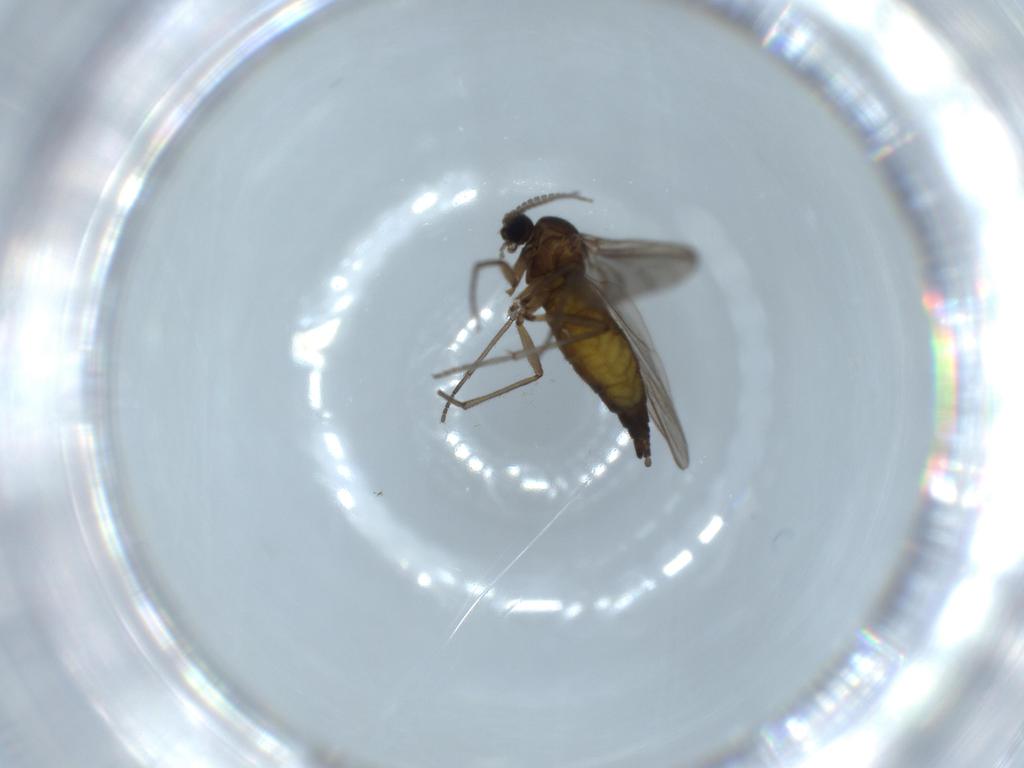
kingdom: Animalia
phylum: Arthropoda
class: Insecta
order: Diptera
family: Sciaridae
